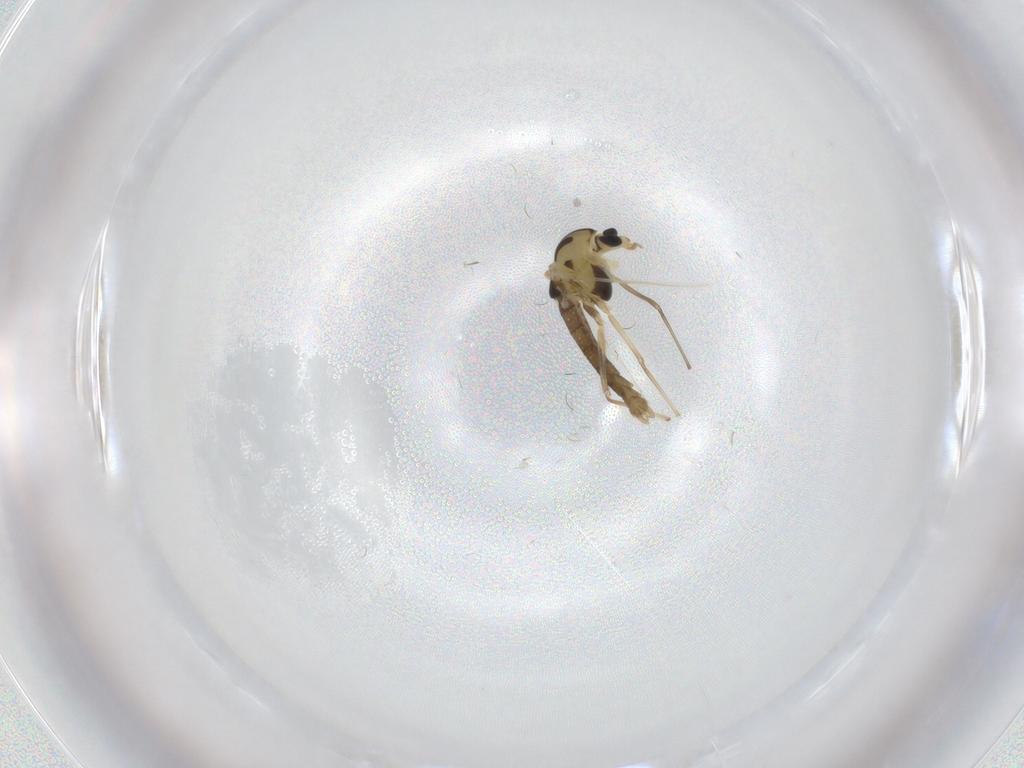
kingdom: Animalia
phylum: Arthropoda
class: Insecta
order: Diptera
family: Chironomidae
